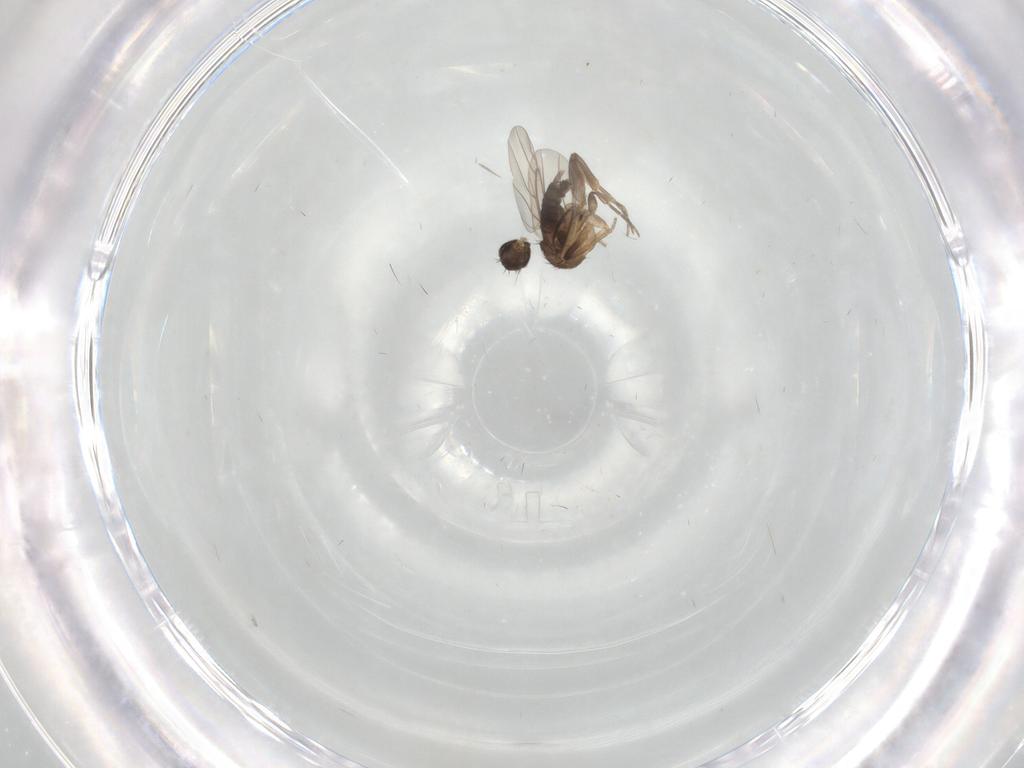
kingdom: Animalia
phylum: Arthropoda
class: Insecta
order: Diptera
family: Phoridae
